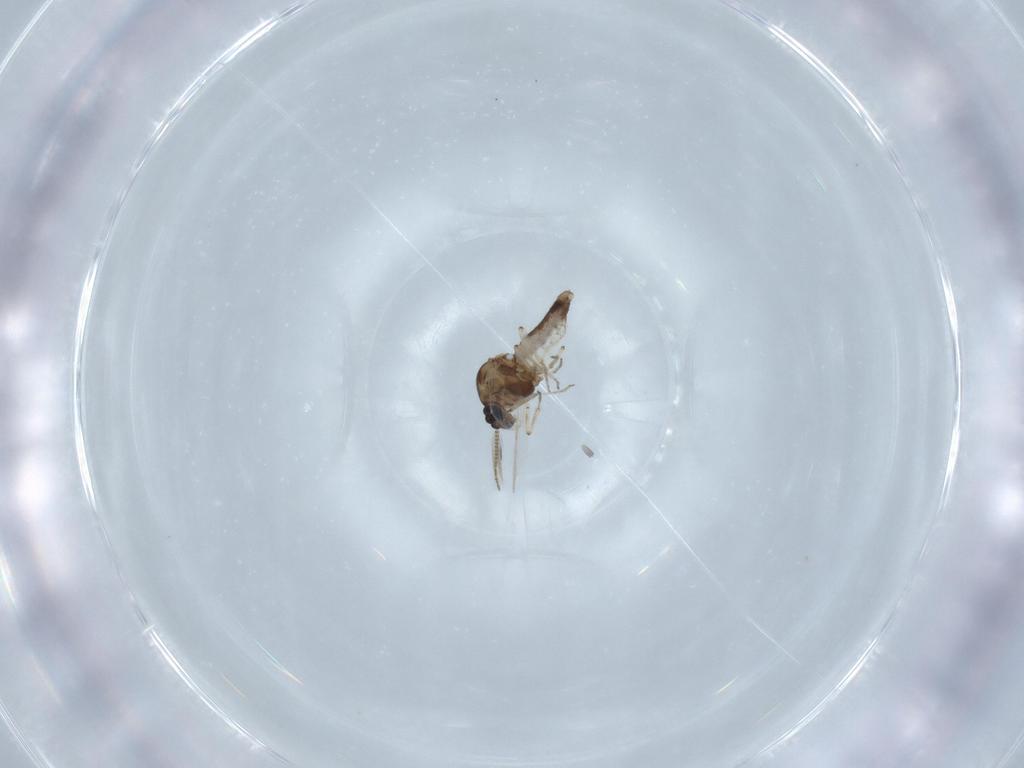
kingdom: Animalia
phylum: Arthropoda
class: Insecta
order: Diptera
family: Ceratopogonidae
